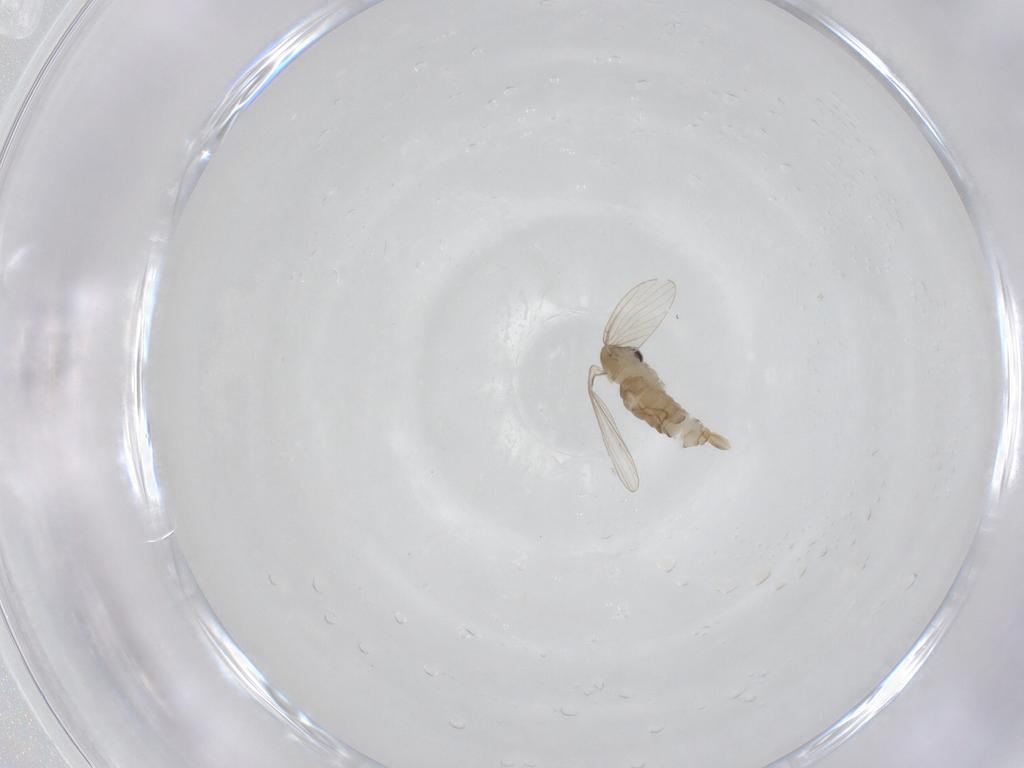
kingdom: Animalia
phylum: Arthropoda
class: Insecta
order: Diptera
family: Psychodidae
